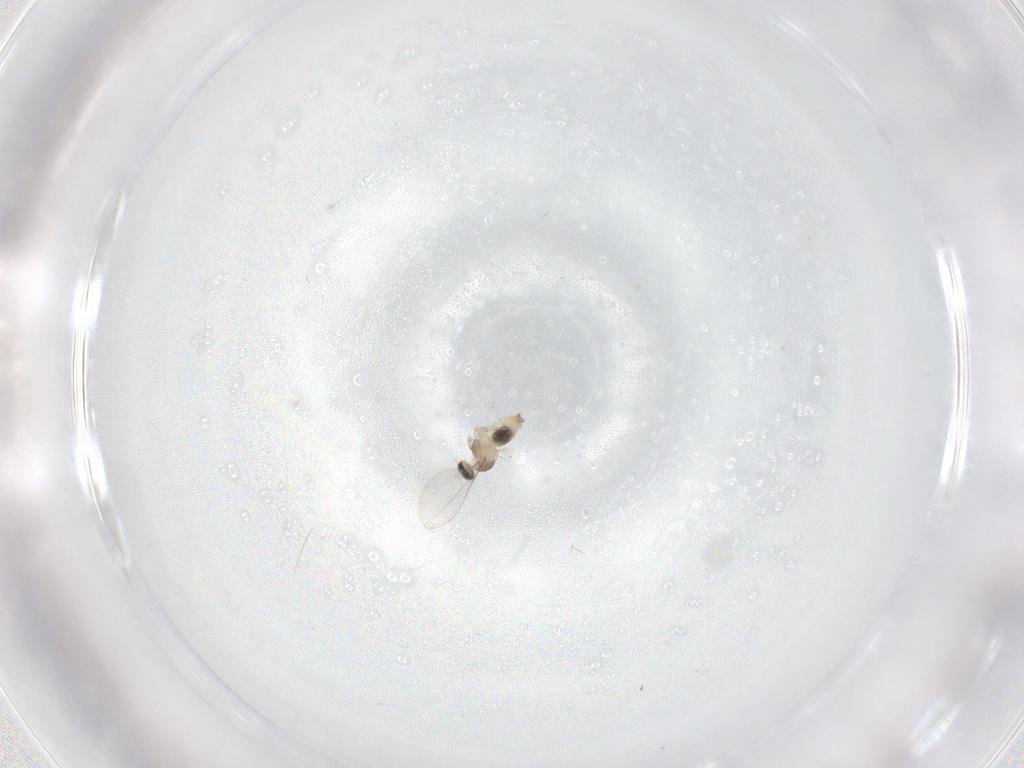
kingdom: Animalia
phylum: Arthropoda
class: Insecta
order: Diptera
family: Cecidomyiidae
